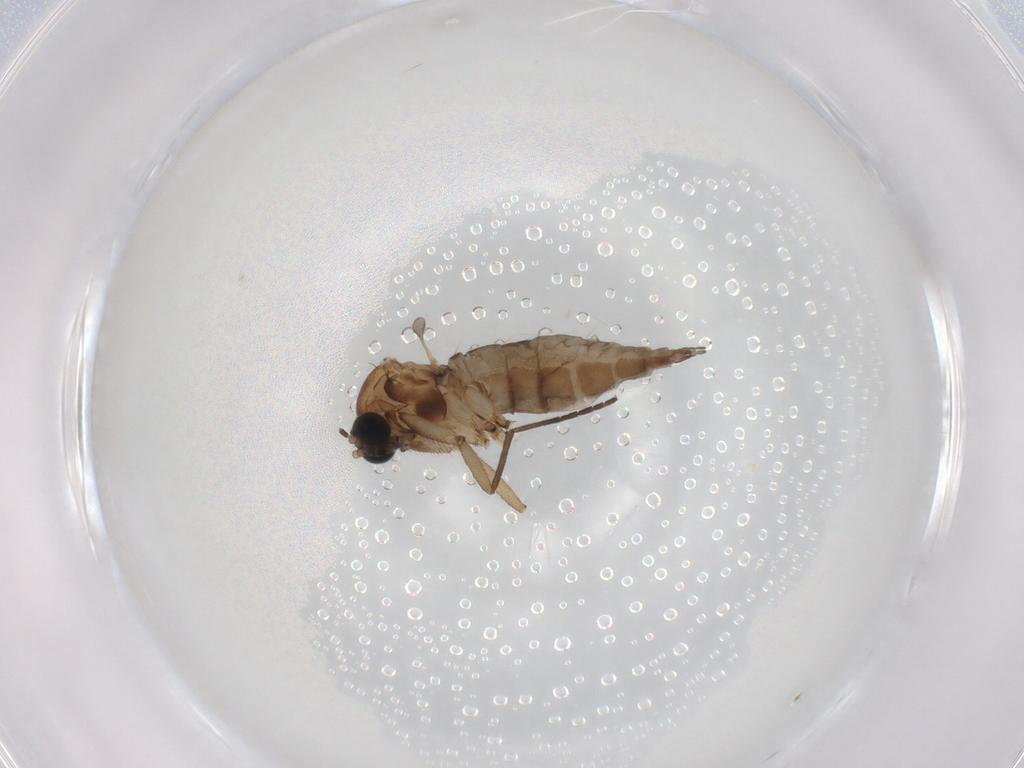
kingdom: Animalia
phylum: Arthropoda
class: Insecta
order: Diptera
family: Sciaridae
